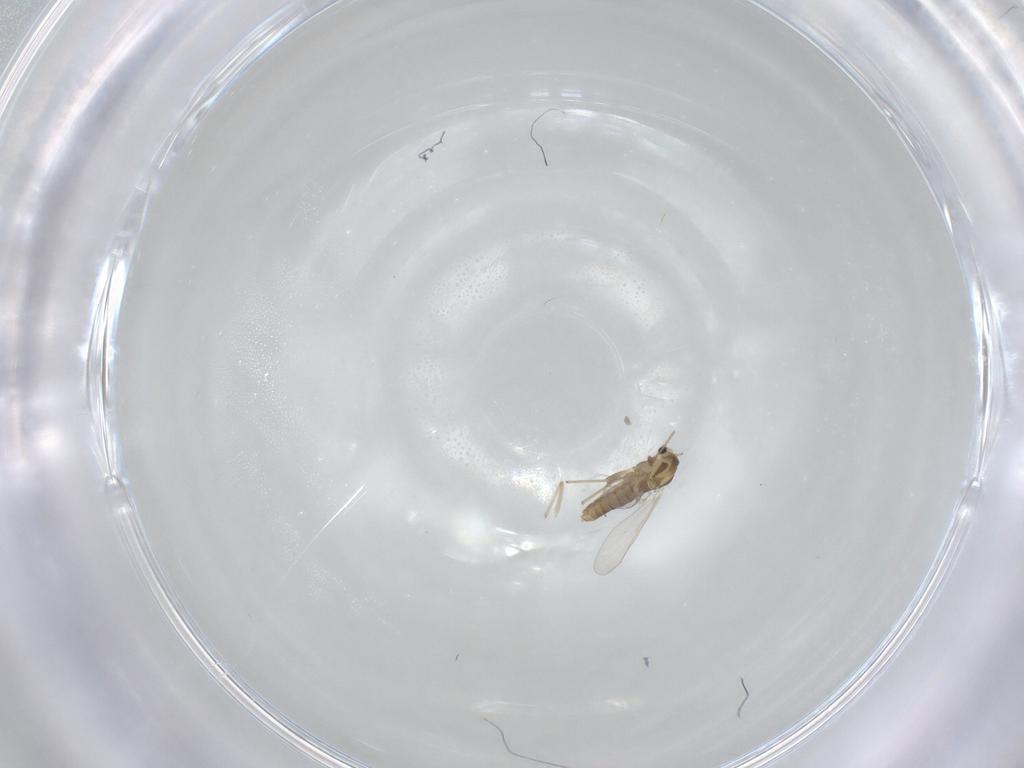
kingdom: Animalia
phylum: Arthropoda
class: Insecta
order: Diptera
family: Chironomidae
